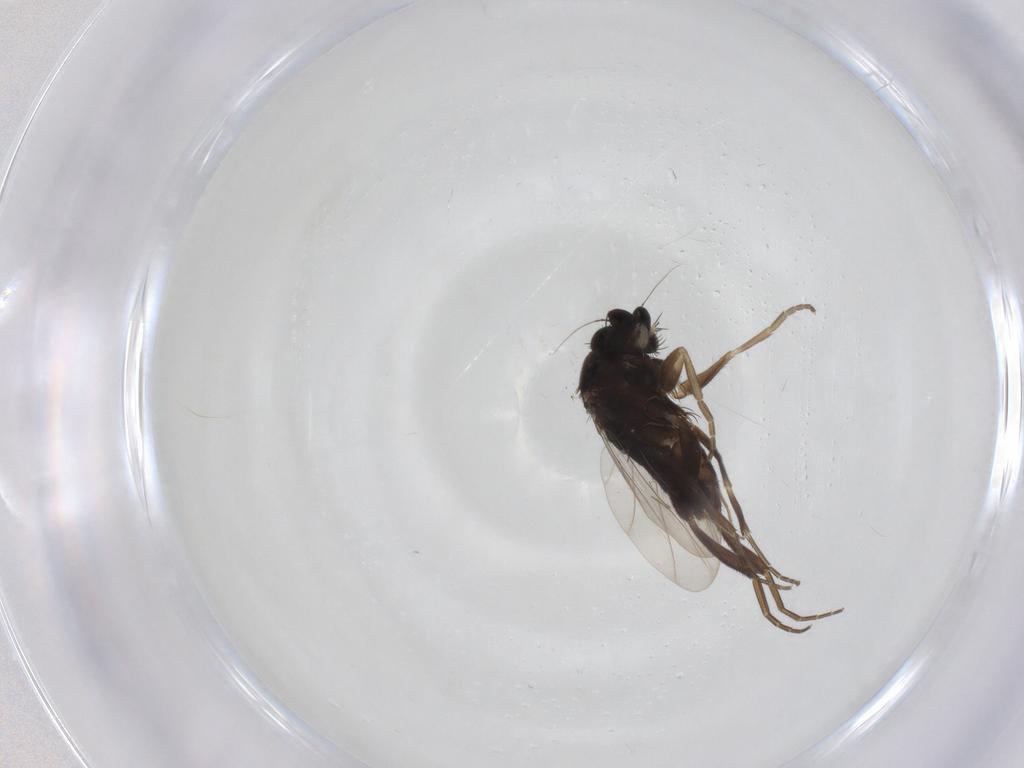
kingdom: Animalia
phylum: Arthropoda
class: Insecta
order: Diptera
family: Phoridae
